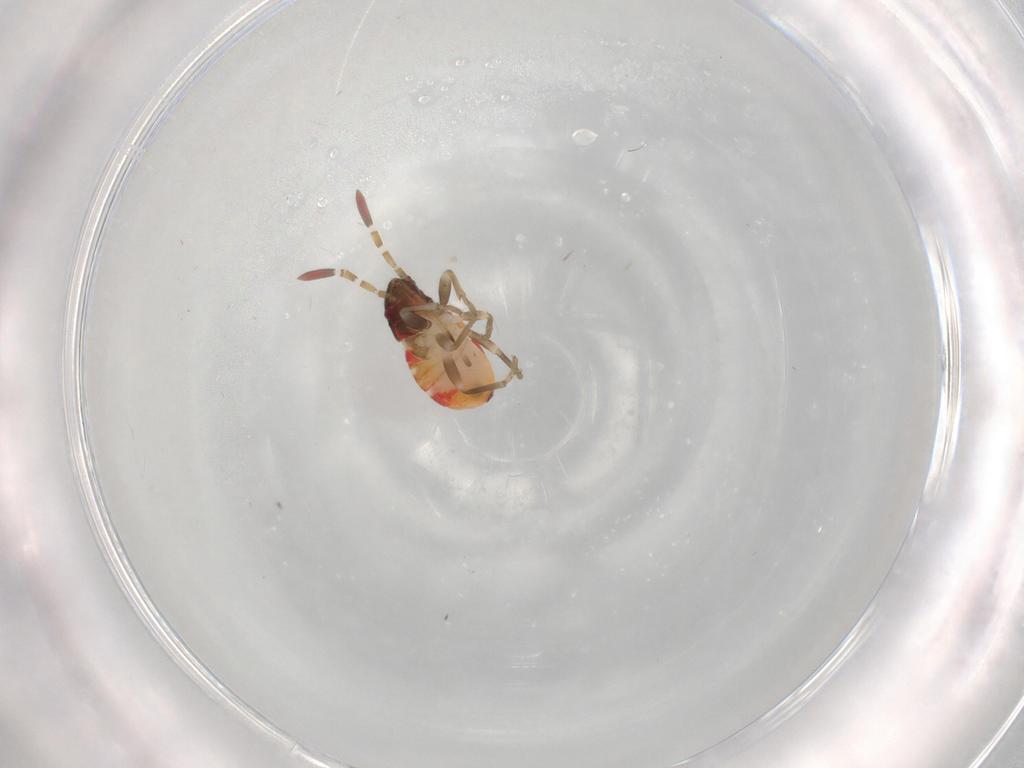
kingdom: Animalia
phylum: Arthropoda
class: Insecta
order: Hemiptera
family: Rhyparochromidae
